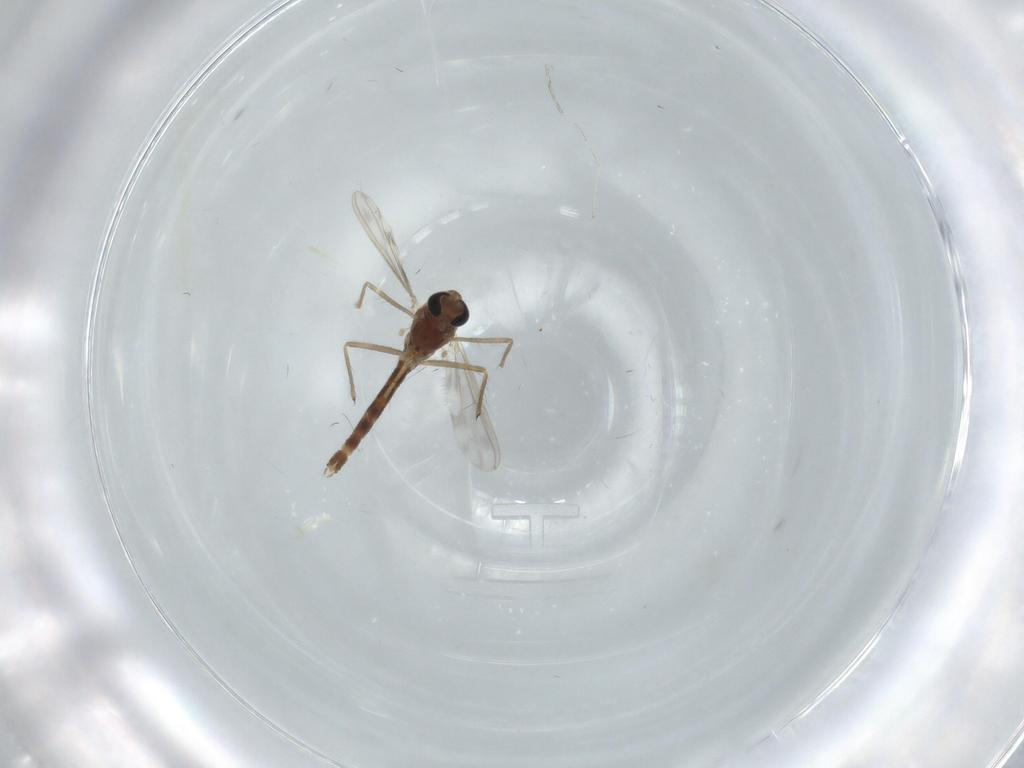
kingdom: Animalia
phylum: Arthropoda
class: Insecta
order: Diptera
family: Chironomidae
